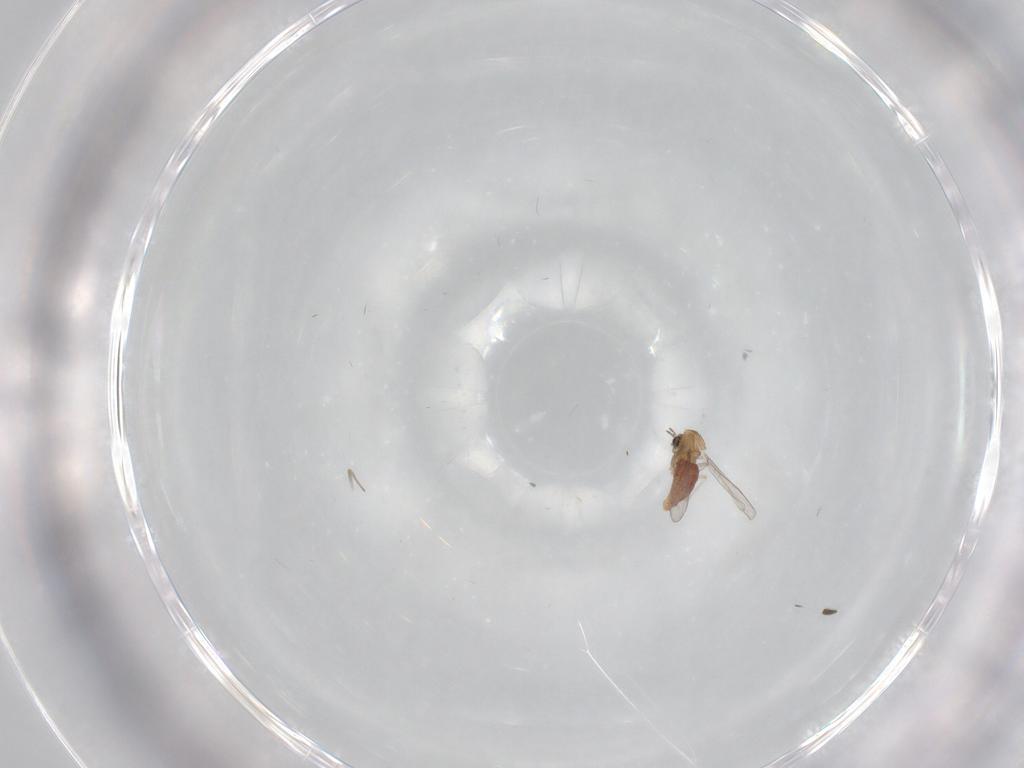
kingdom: Animalia
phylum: Arthropoda
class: Insecta
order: Diptera
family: Chironomidae
